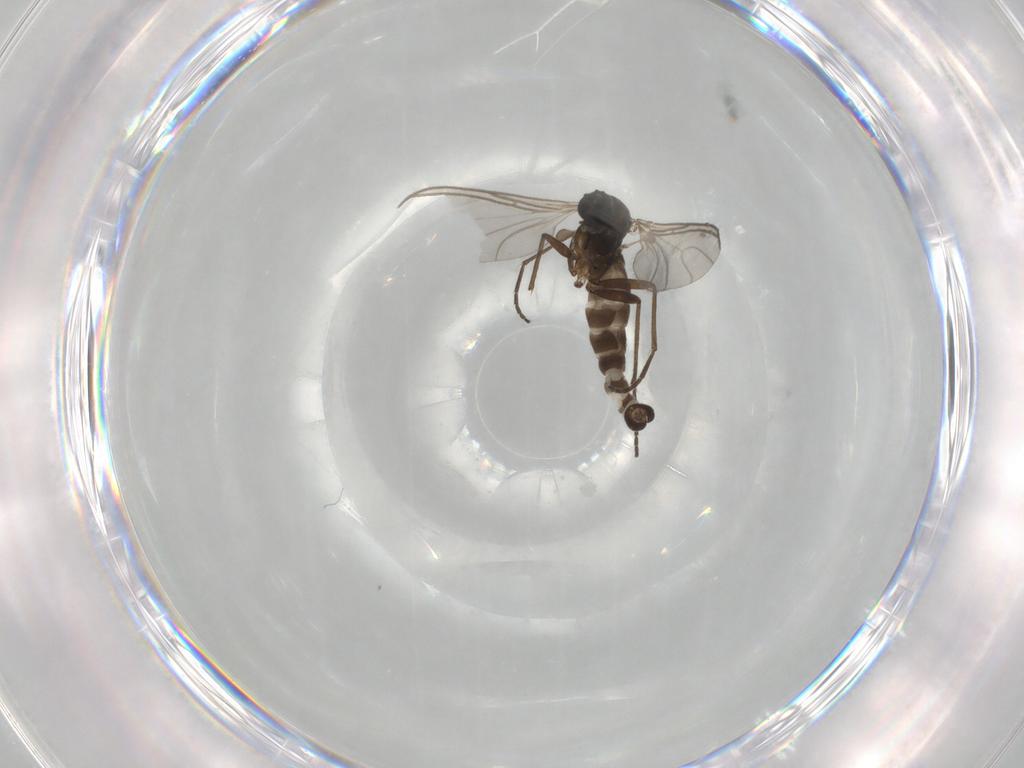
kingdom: Animalia
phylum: Arthropoda
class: Insecta
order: Diptera
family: Sciaridae
